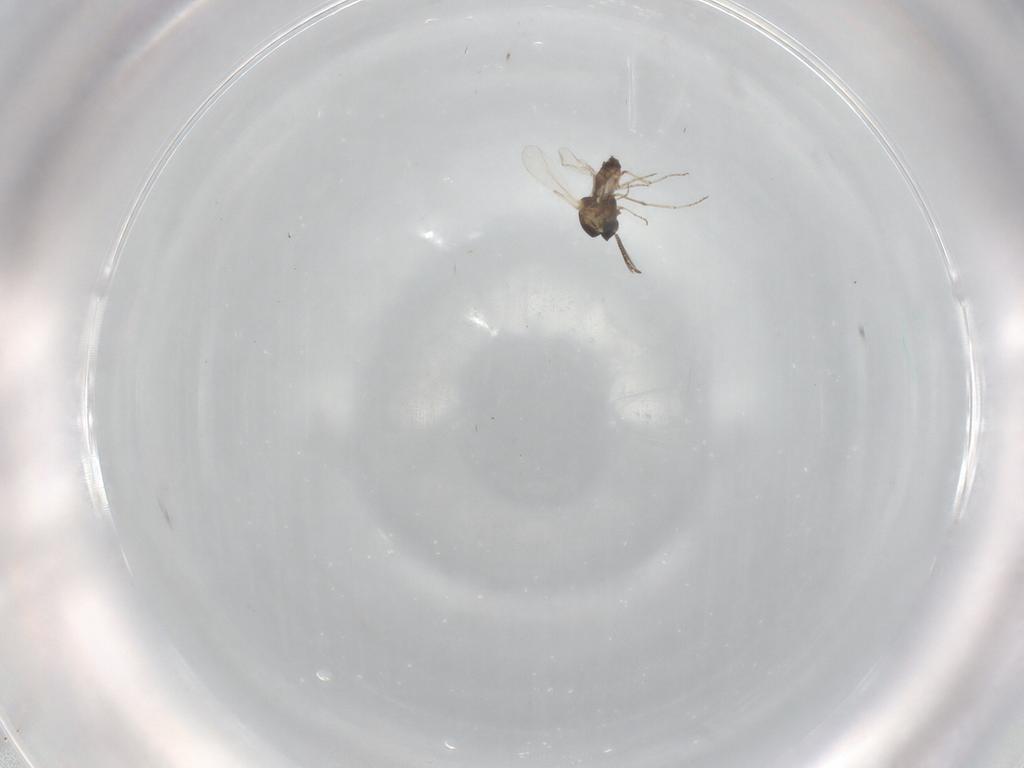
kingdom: Animalia
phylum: Arthropoda
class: Insecta
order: Diptera
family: Ceratopogonidae
